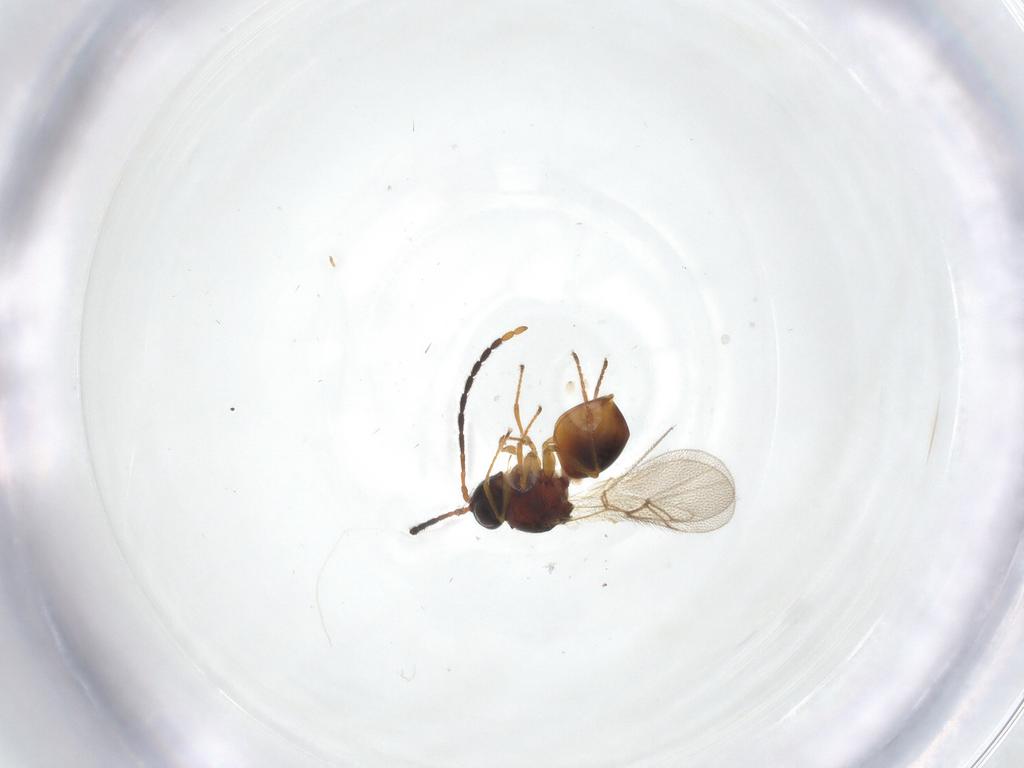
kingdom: Animalia
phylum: Arthropoda
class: Insecta
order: Hymenoptera
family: Figitidae
